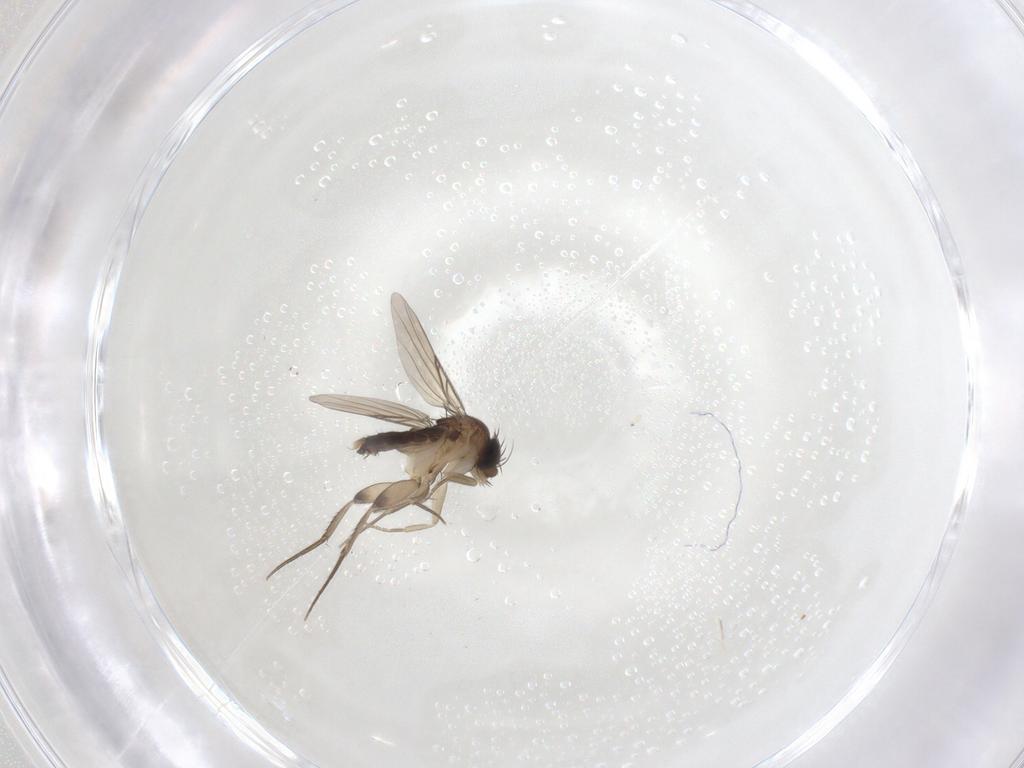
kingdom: Animalia
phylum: Arthropoda
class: Insecta
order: Diptera
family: Phoridae
